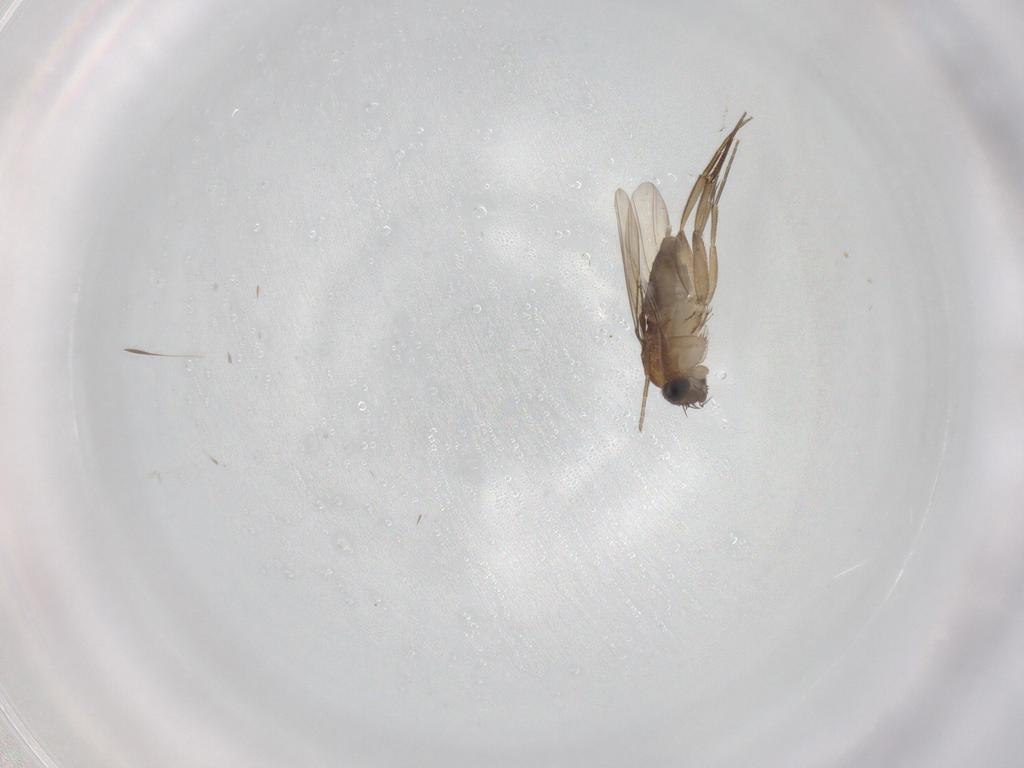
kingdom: Animalia
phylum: Arthropoda
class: Insecta
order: Diptera
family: Phoridae
